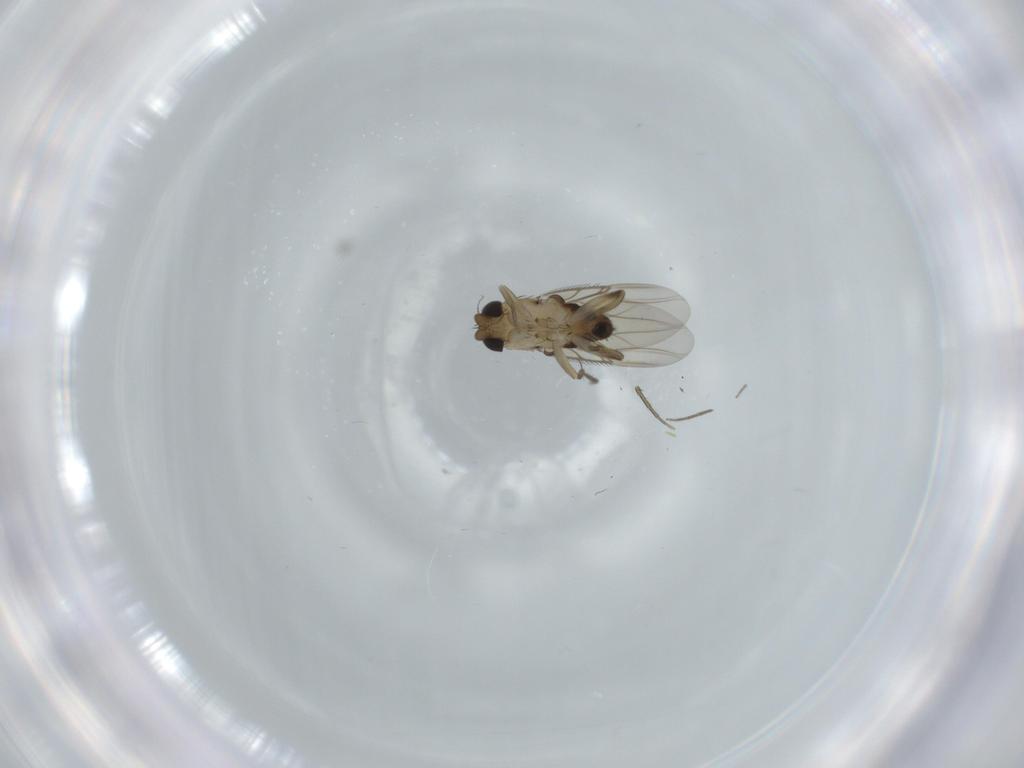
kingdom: Animalia
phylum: Arthropoda
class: Insecta
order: Diptera
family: Phoridae
